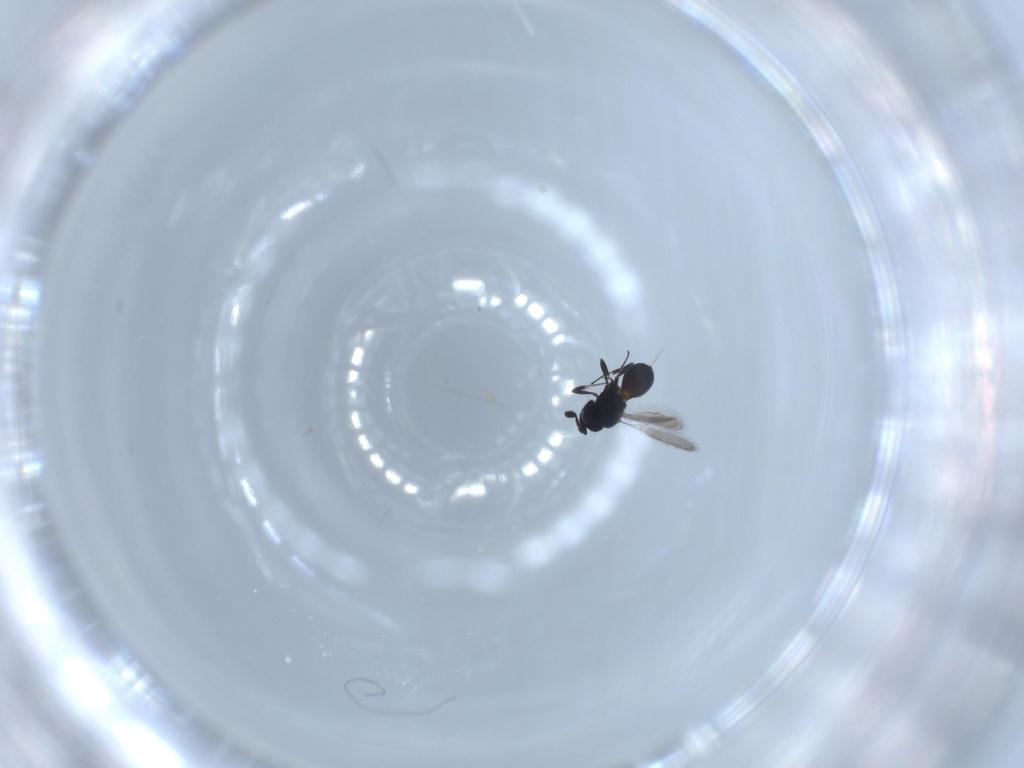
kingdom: Animalia
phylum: Arthropoda
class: Insecta
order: Hymenoptera
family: Scelionidae
